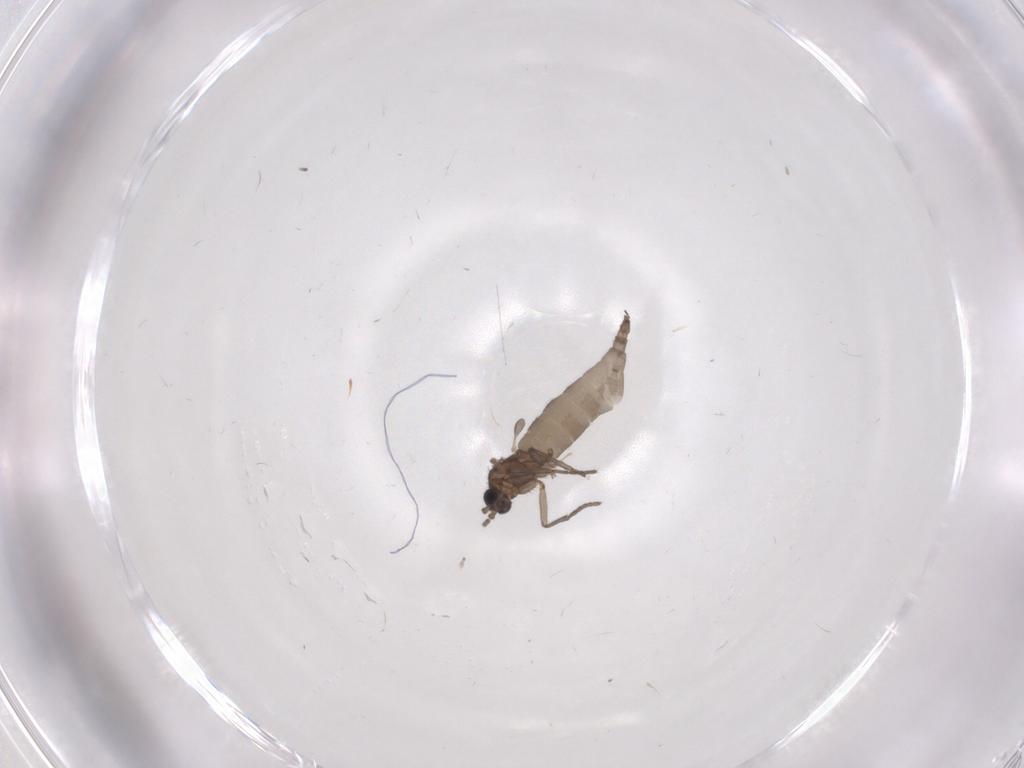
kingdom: Animalia
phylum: Arthropoda
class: Insecta
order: Diptera
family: Sciaridae
